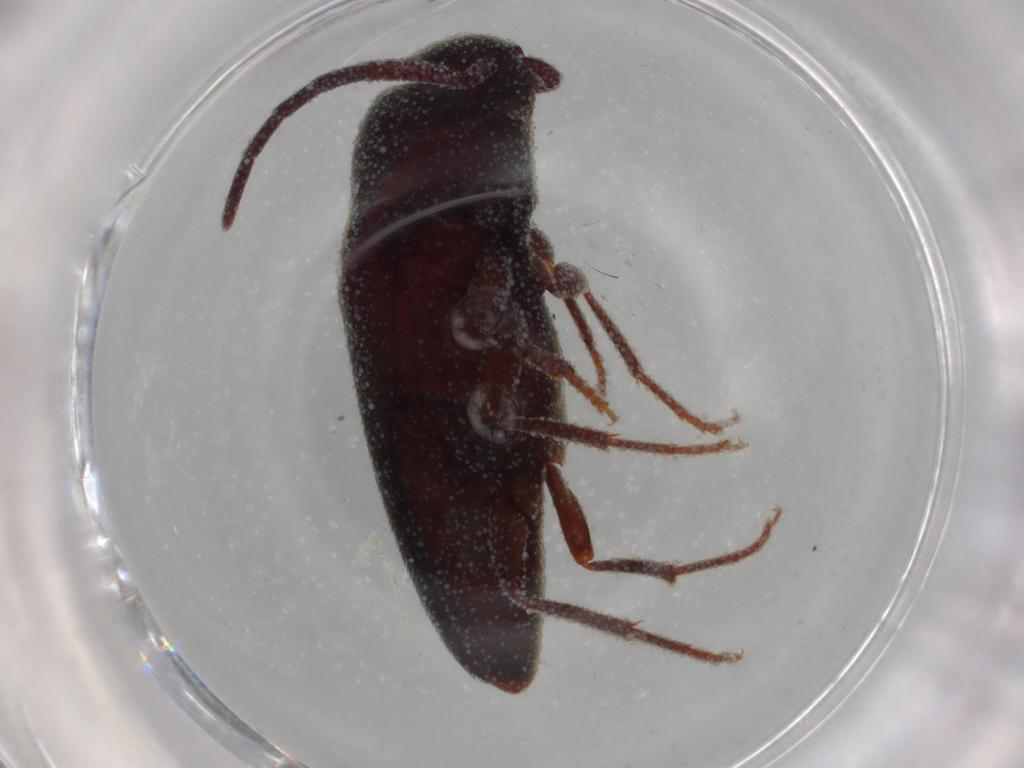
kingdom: Animalia
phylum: Arthropoda
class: Insecta
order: Coleoptera
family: Eucnemidae
